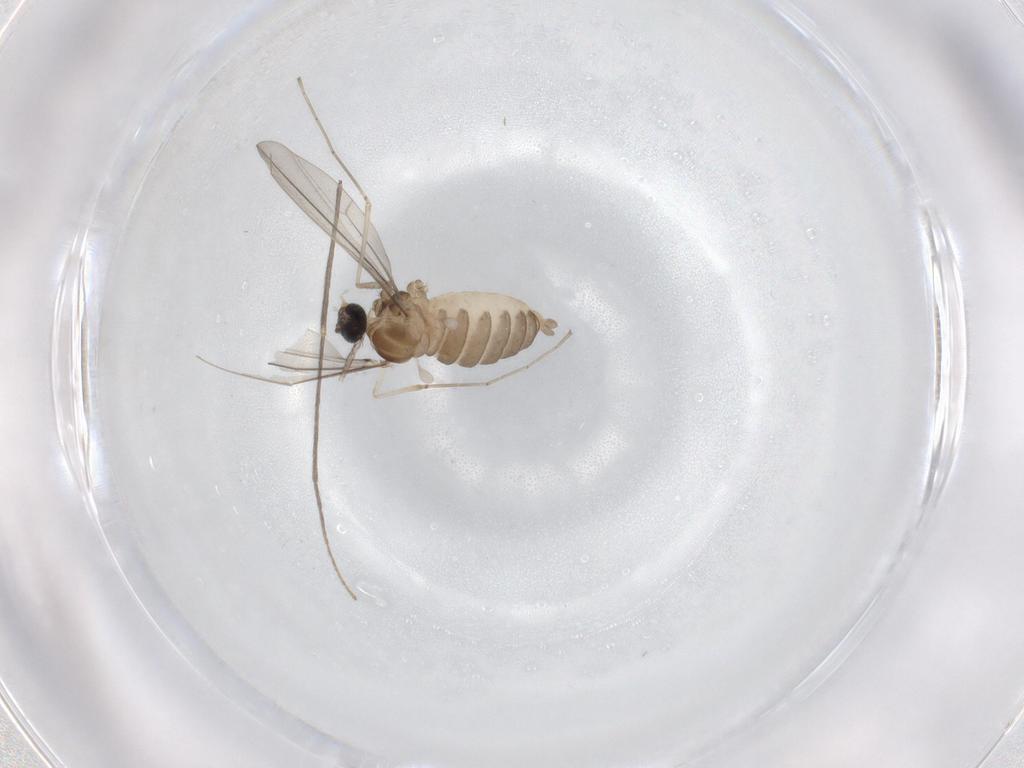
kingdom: Animalia
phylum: Arthropoda
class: Insecta
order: Diptera
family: Cecidomyiidae
